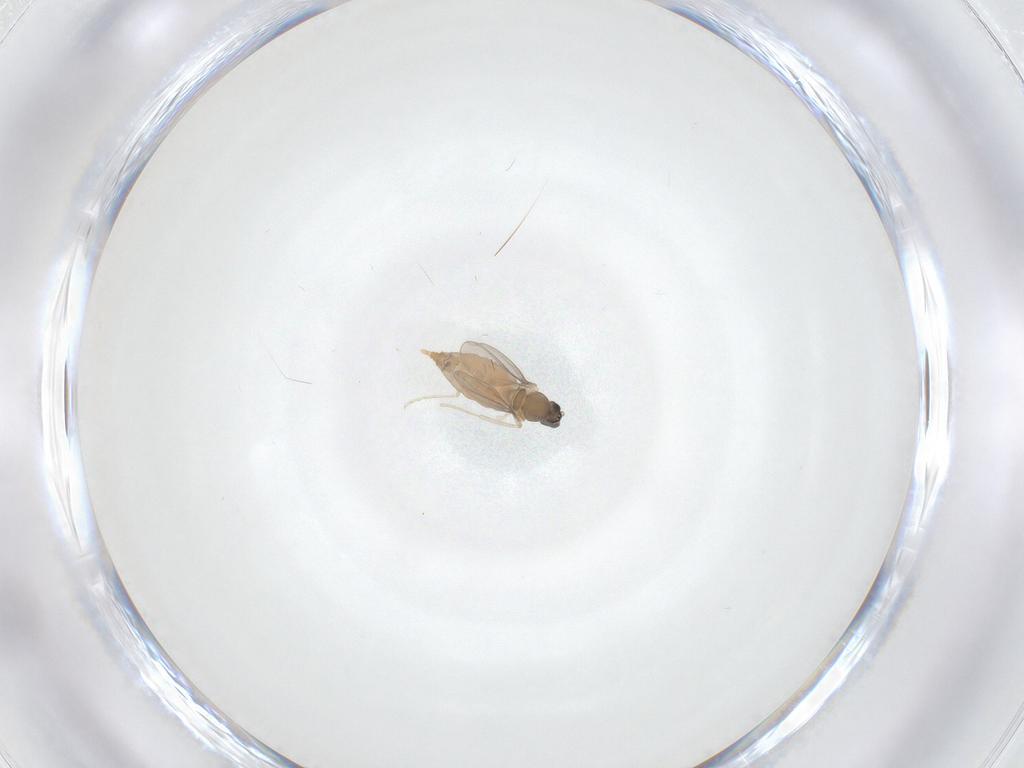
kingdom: Animalia
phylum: Arthropoda
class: Insecta
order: Diptera
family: Cecidomyiidae
